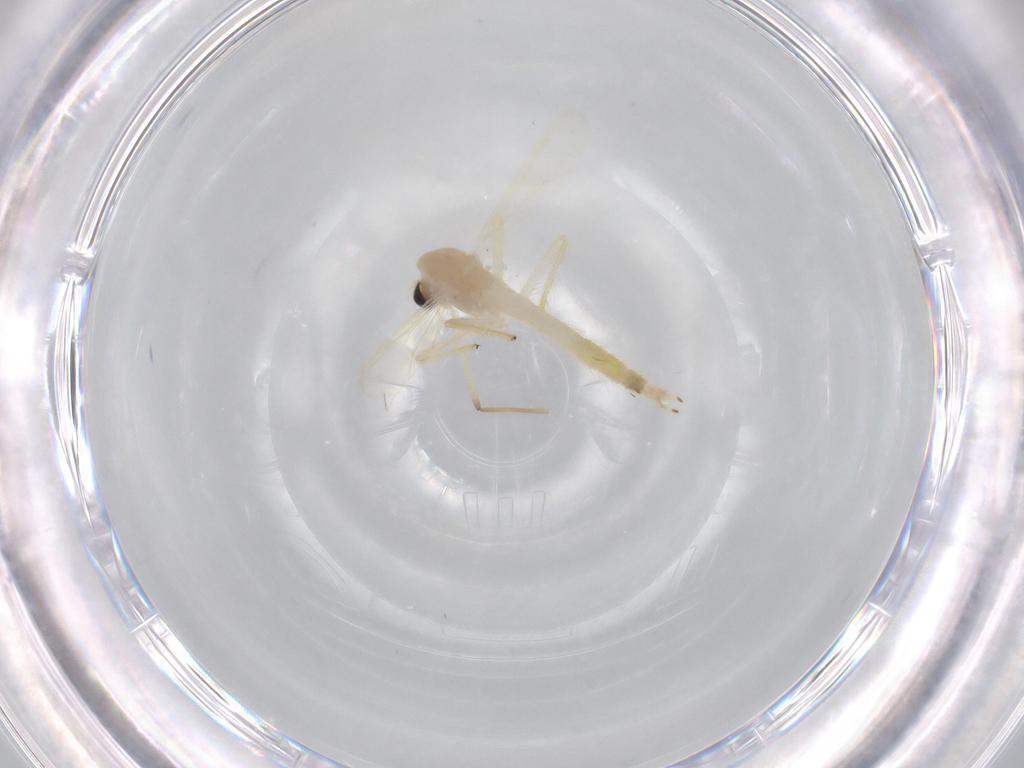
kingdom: Animalia
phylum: Arthropoda
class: Insecta
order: Diptera
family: Chironomidae
